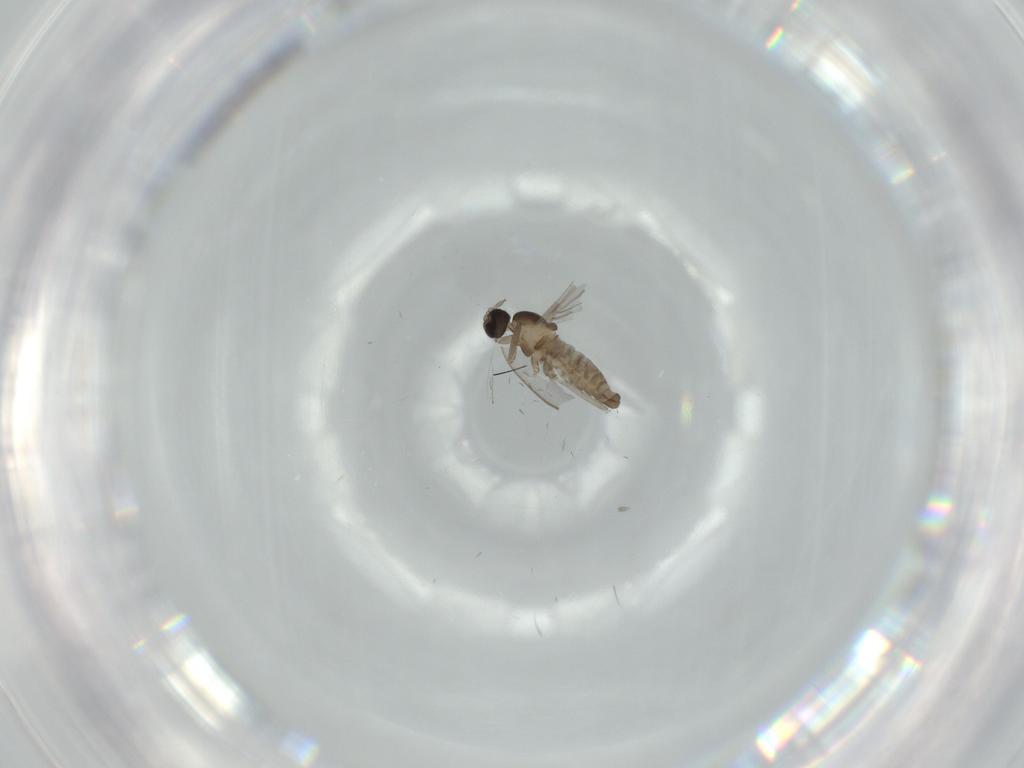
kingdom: Animalia
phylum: Arthropoda
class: Insecta
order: Diptera
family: Cecidomyiidae
